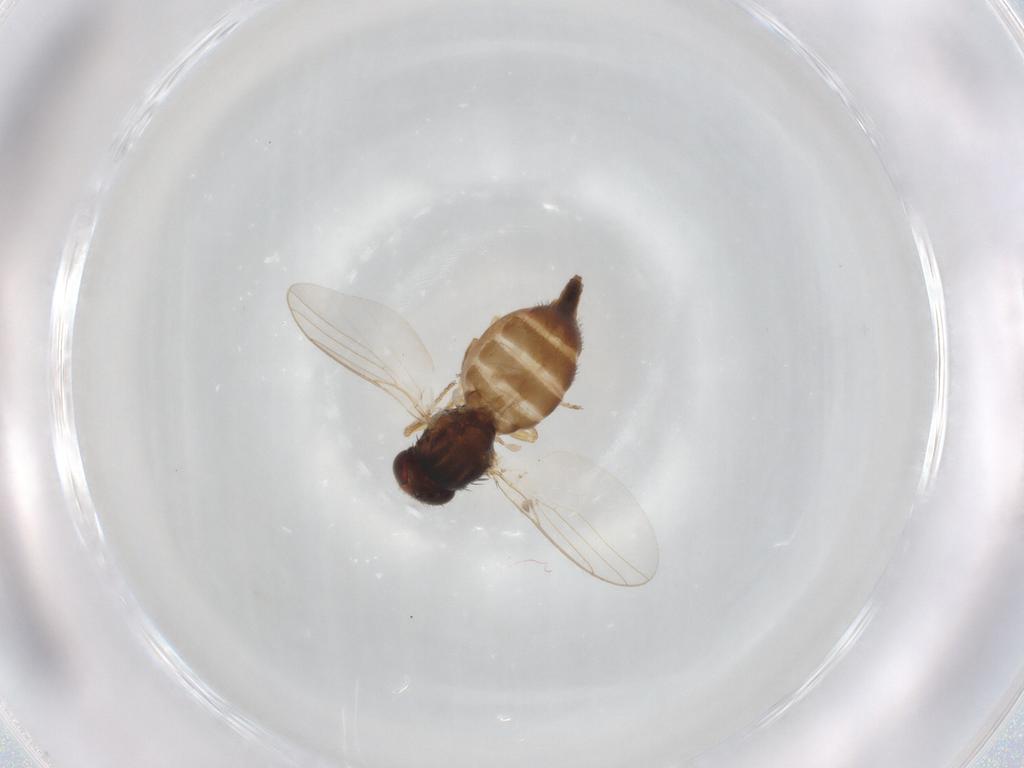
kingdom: Animalia
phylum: Arthropoda
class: Insecta
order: Diptera
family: Chloropidae
